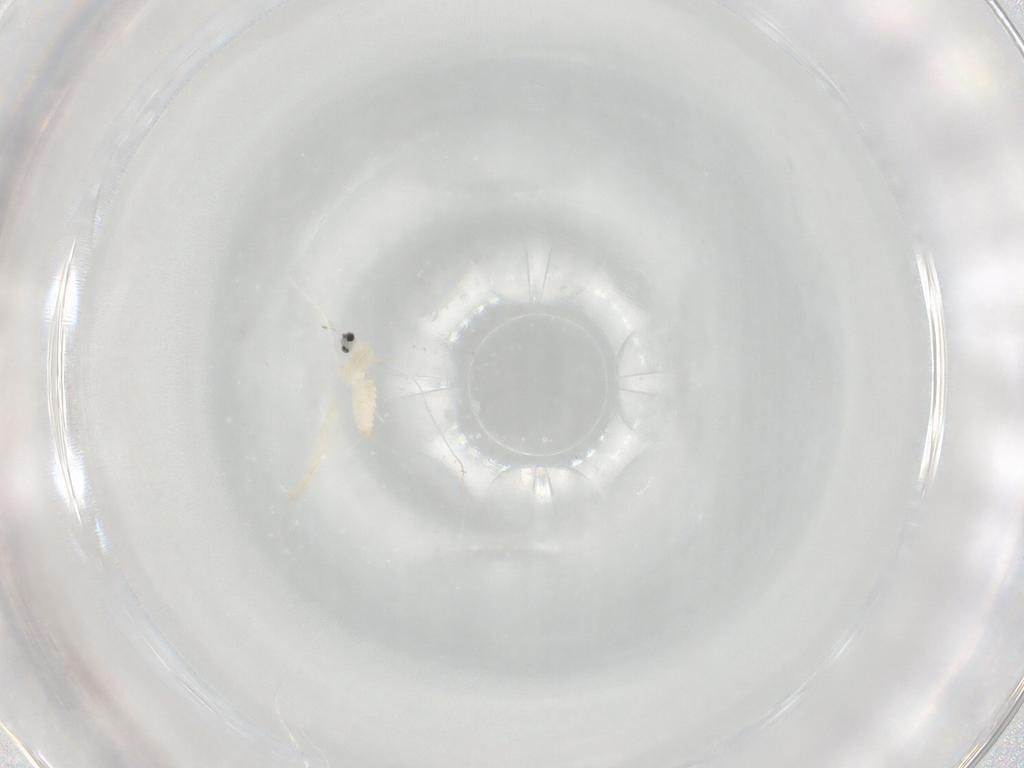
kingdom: Animalia
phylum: Arthropoda
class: Insecta
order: Diptera
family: Cecidomyiidae
